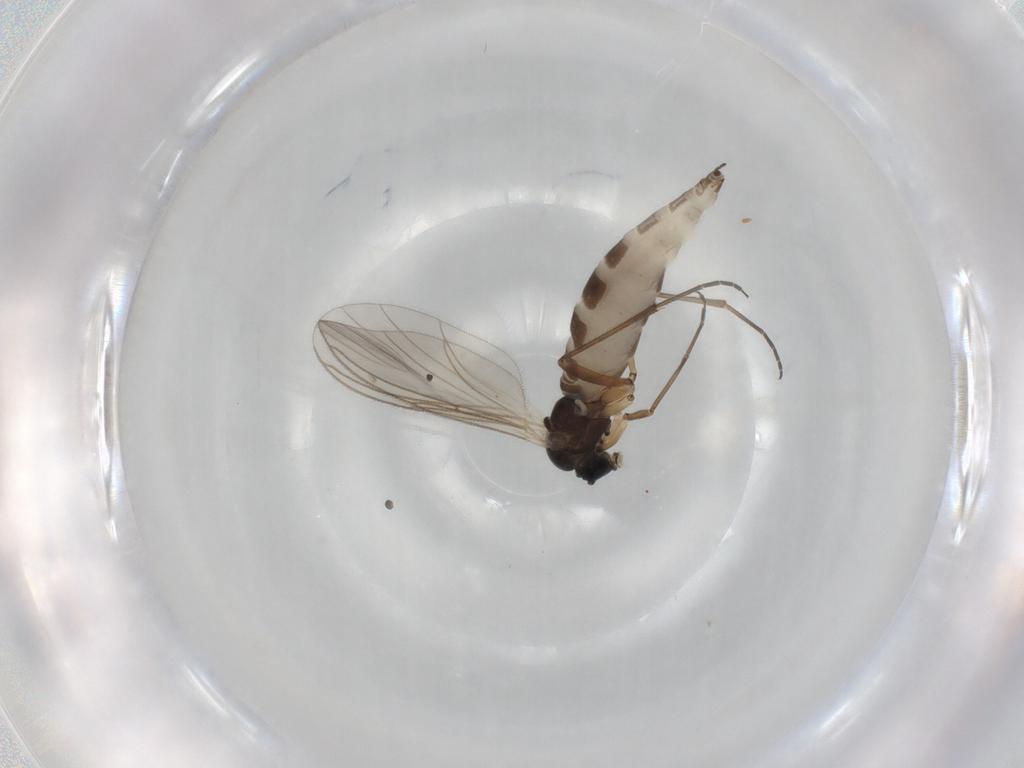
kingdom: Animalia
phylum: Arthropoda
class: Insecta
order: Diptera
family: Sciaridae
